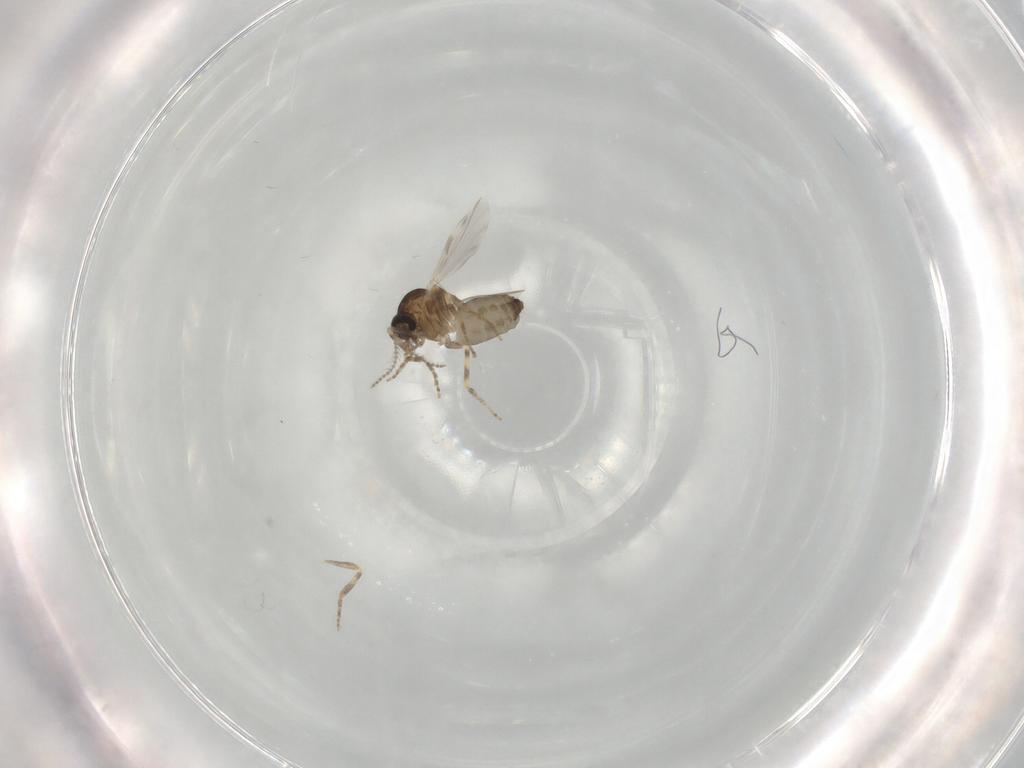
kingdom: Animalia
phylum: Arthropoda
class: Insecta
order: Diptera
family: Ceratopogonidae
